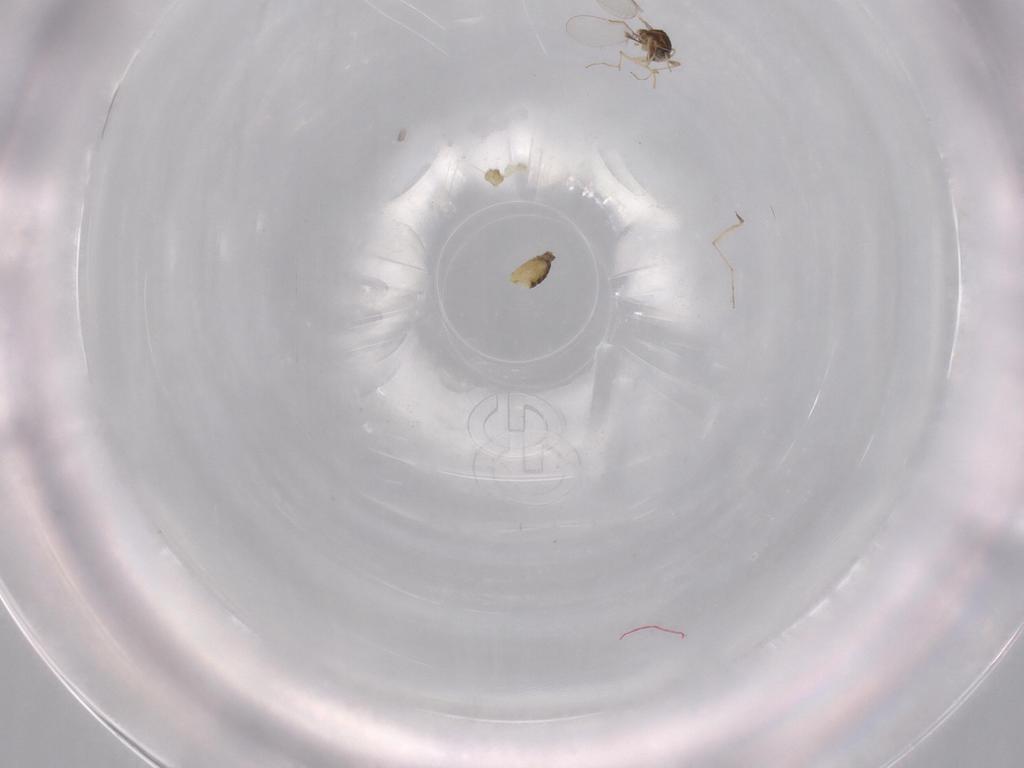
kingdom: Animalia
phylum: Arthropoda
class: Insecta
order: Diptera
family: Chironomidae
